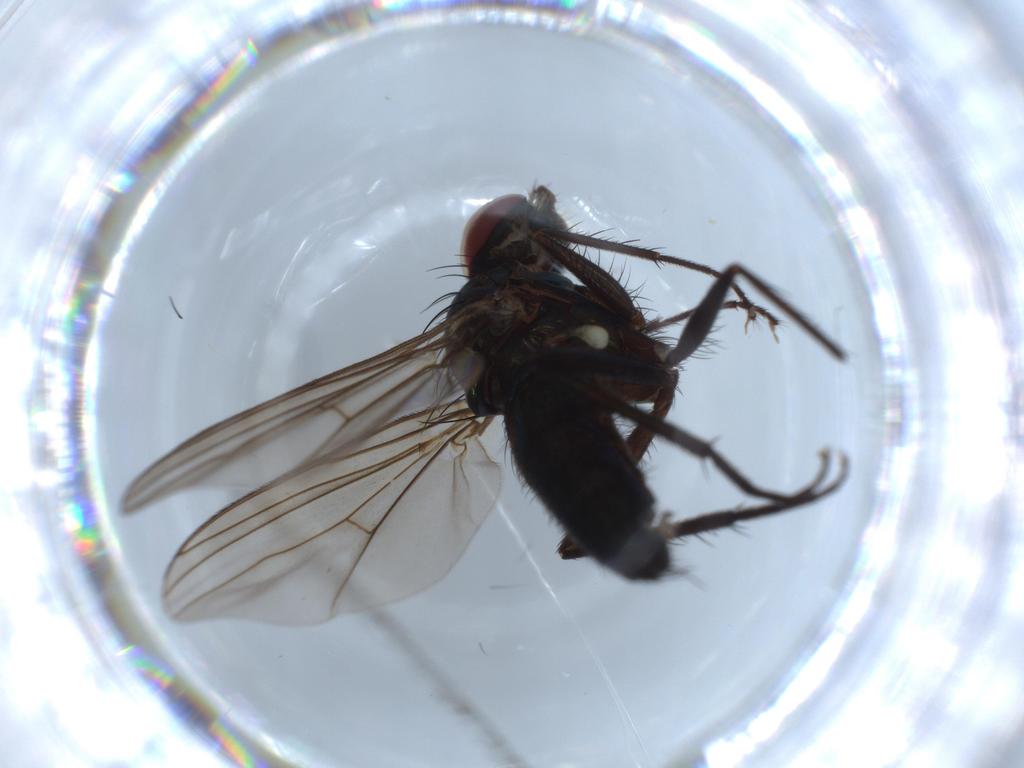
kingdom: Animalia
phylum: Arthropoda
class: Insecta
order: Diptera
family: Dolichopodidae
